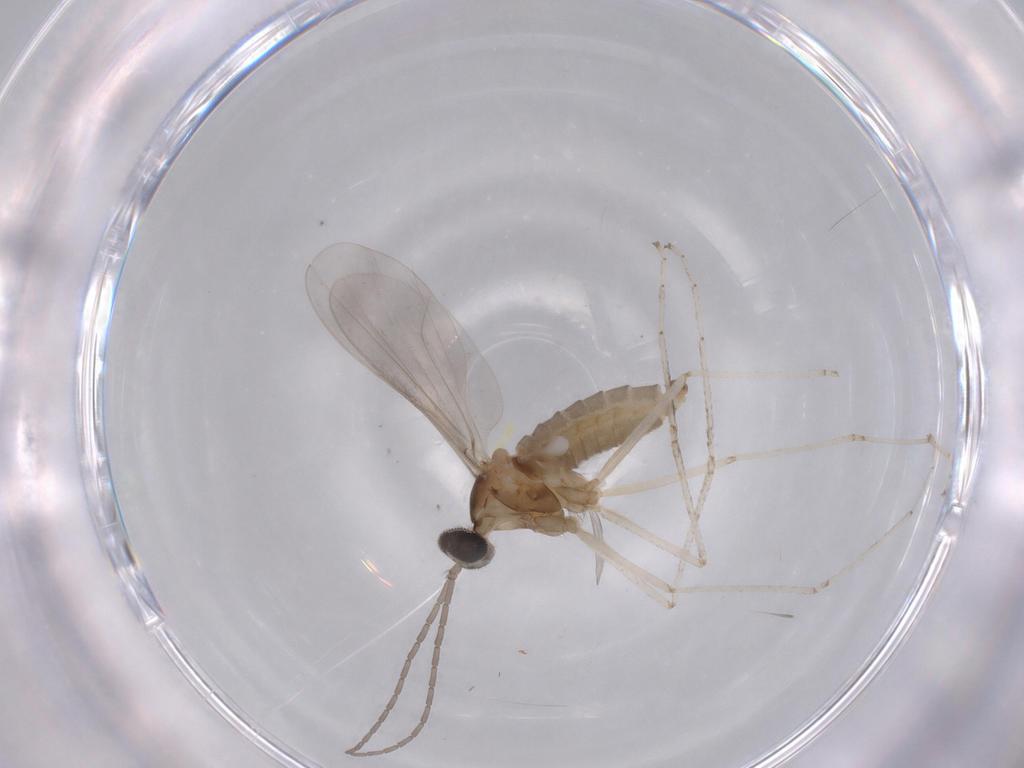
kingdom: Animalia
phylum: Arthropoda
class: Insecta
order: Diptera
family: Cecidomyiidae
